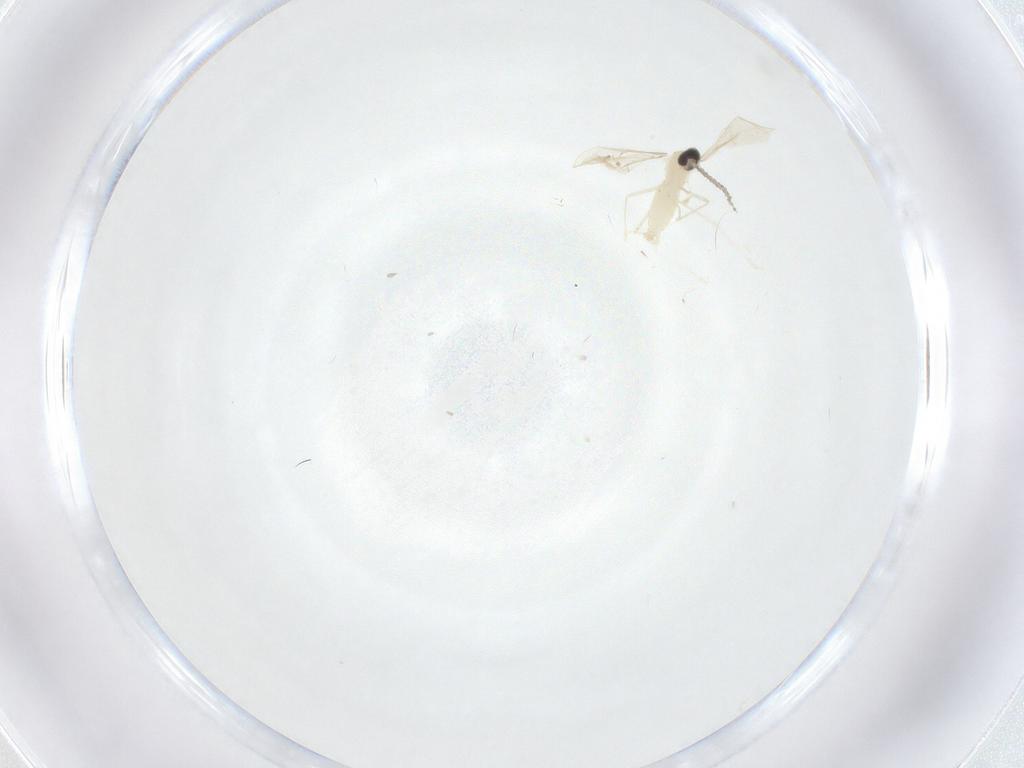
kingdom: Animalia
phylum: Arthropoda
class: Insecta
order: Diptera
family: Cecidomyiidae
